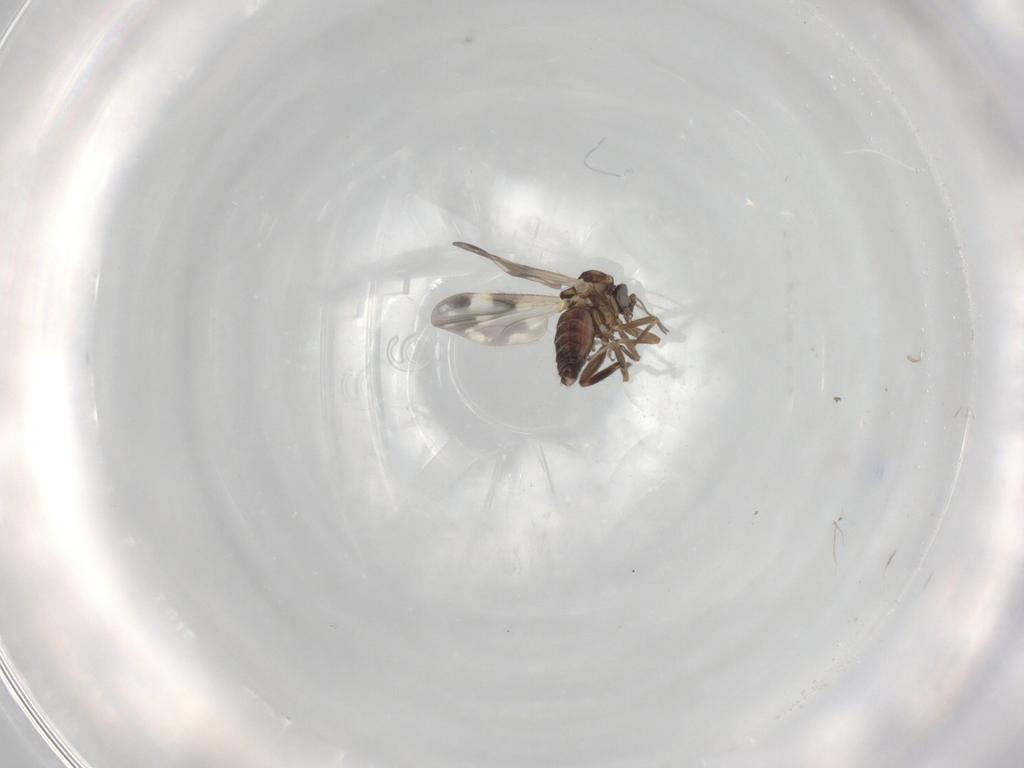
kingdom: Animalia
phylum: Arthropoda
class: Insecta
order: Diptera
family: Ceratopogonidae
